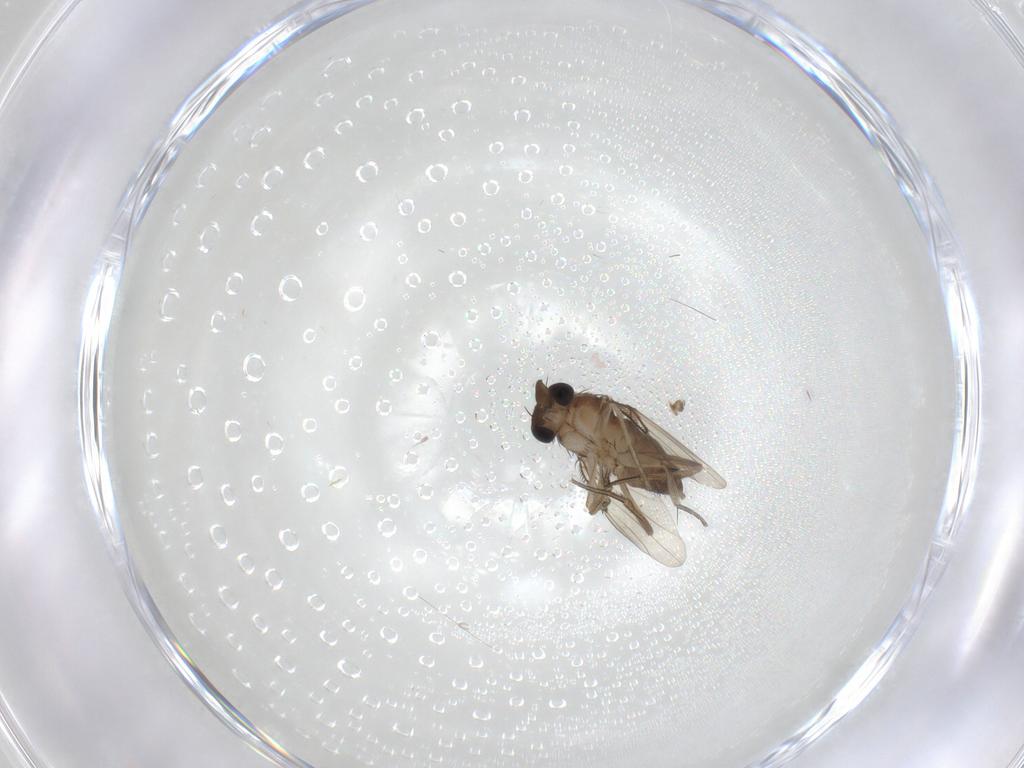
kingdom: Animalia
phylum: Arthropoda
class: Insecta
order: Diptera
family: Phoridae
